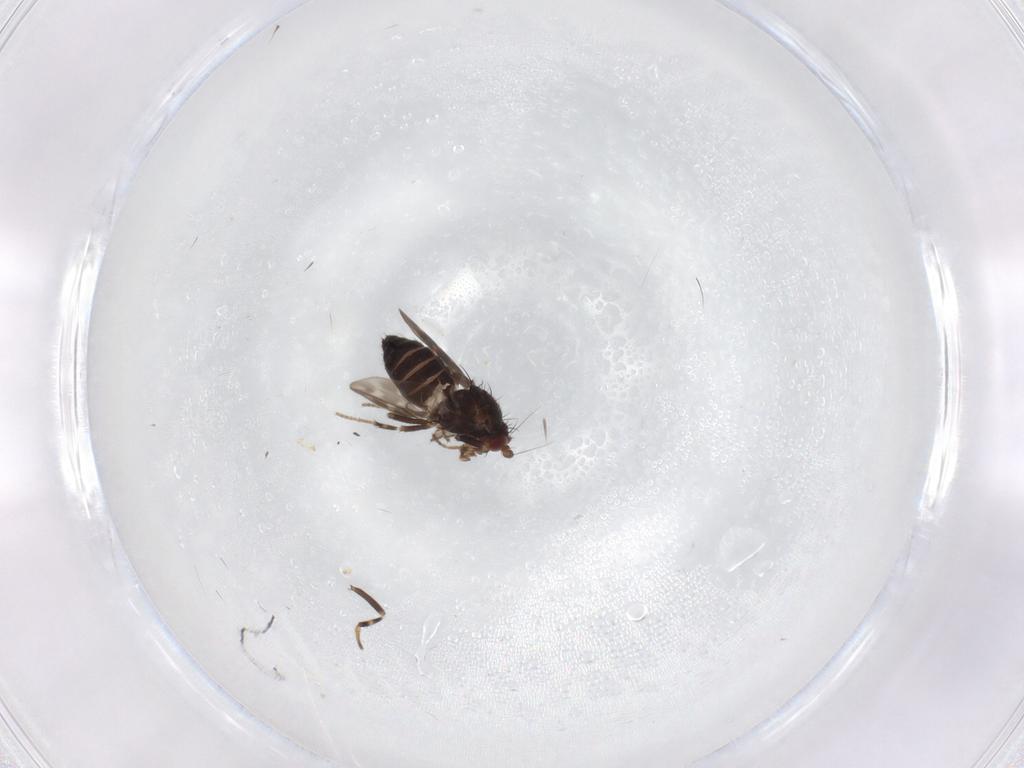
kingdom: Animalia
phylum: Arthropoda
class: Insecta
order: Diptera
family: Sphaeroceridae
